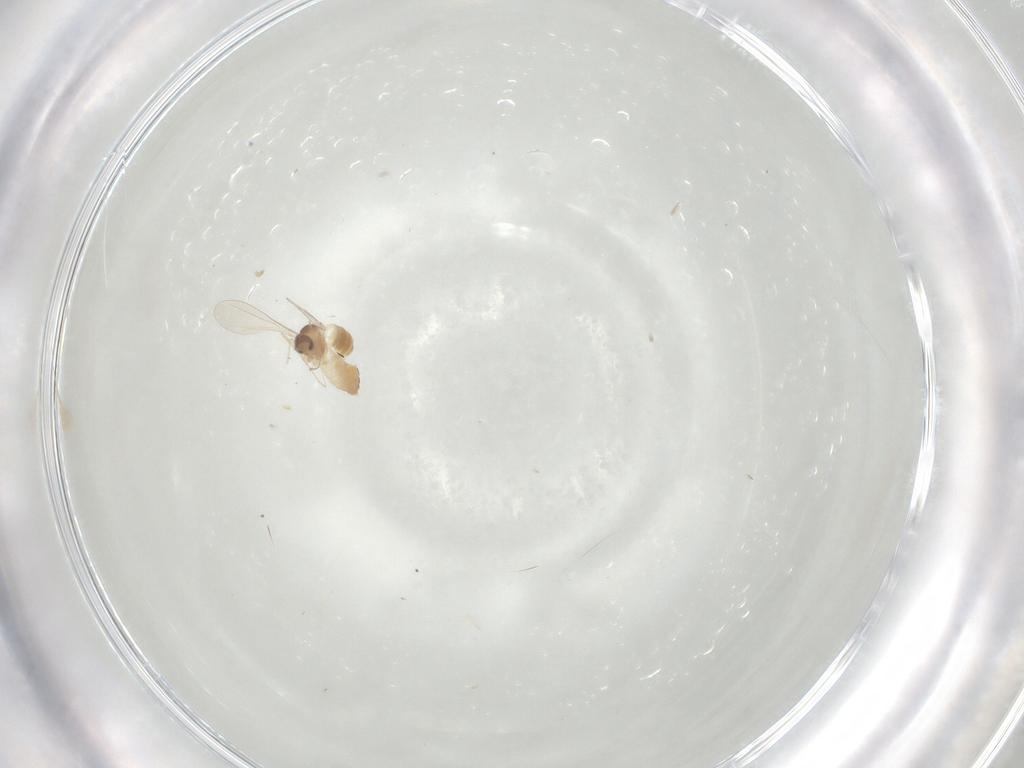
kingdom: Animalia
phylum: Arthropoda
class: Insecta
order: Diptera
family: Cecidomyiidae
